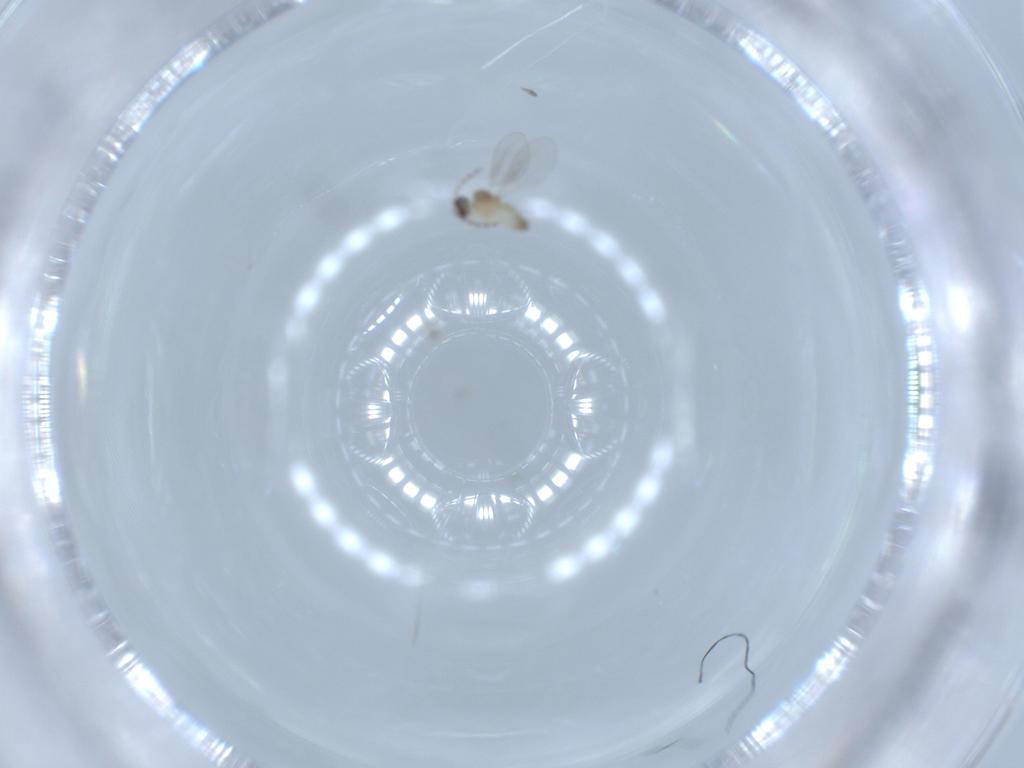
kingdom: Animalia
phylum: Arthropoda
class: Insecta
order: Diptera
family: Cecidomyiidae
